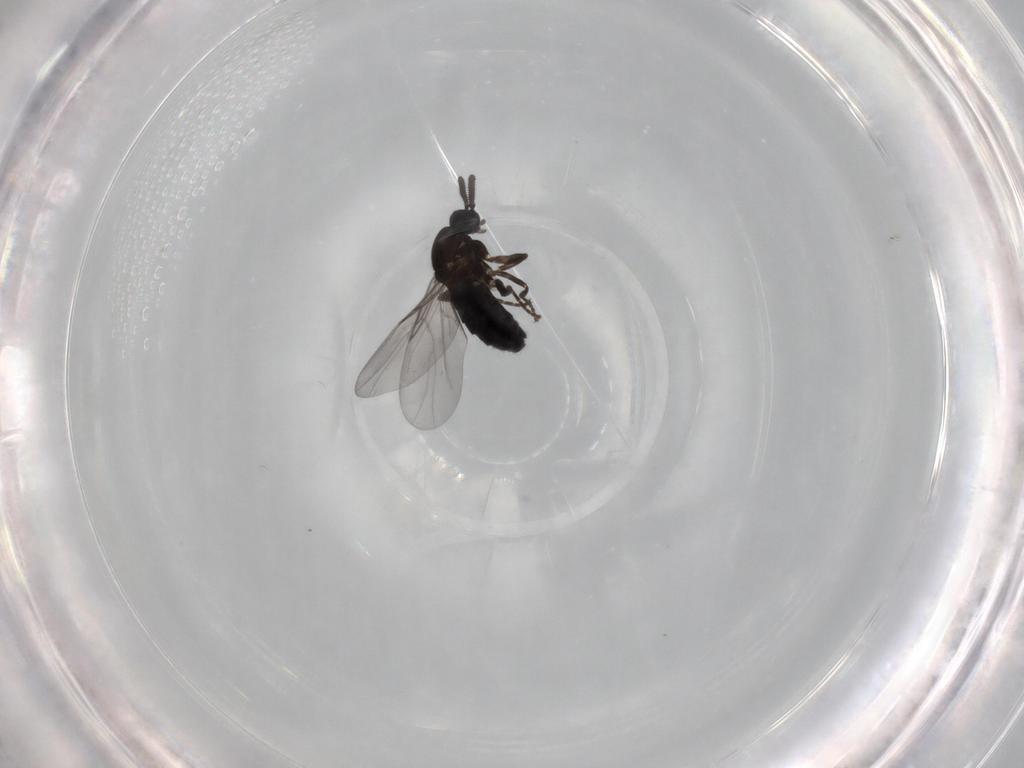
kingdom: Animalia
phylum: Arthropoda
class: Insecta
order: Diptera
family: Scatopsidae
